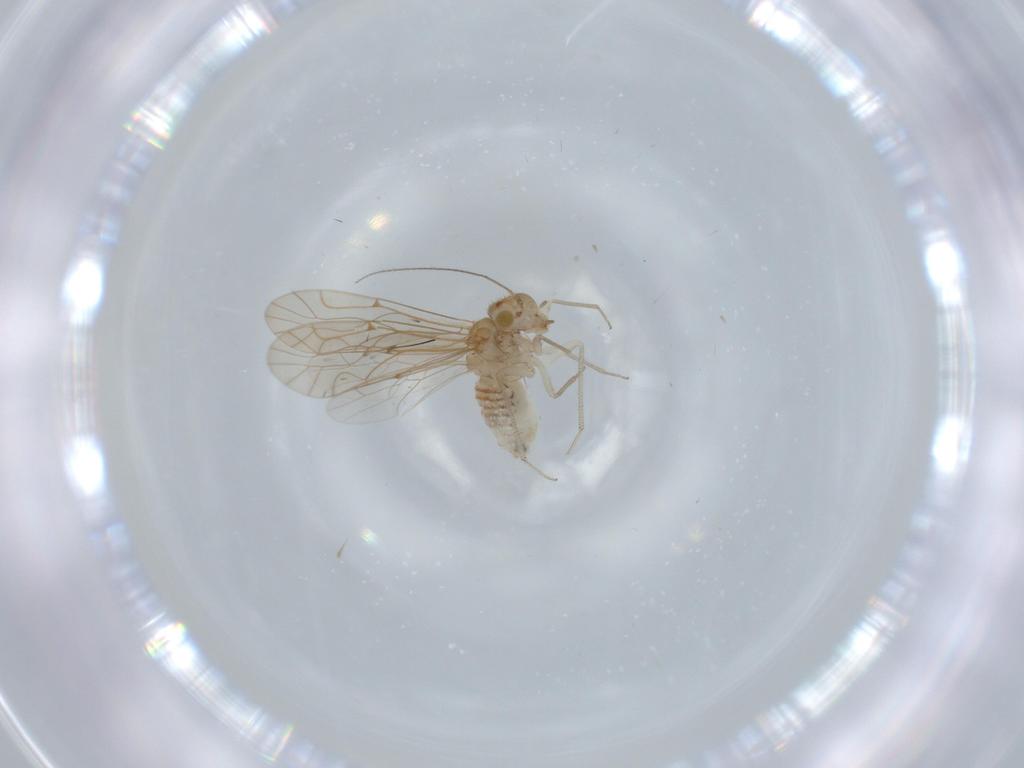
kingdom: Animalia
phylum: Arthropoda
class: Insecta
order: Psocodea
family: Lachesillidae
